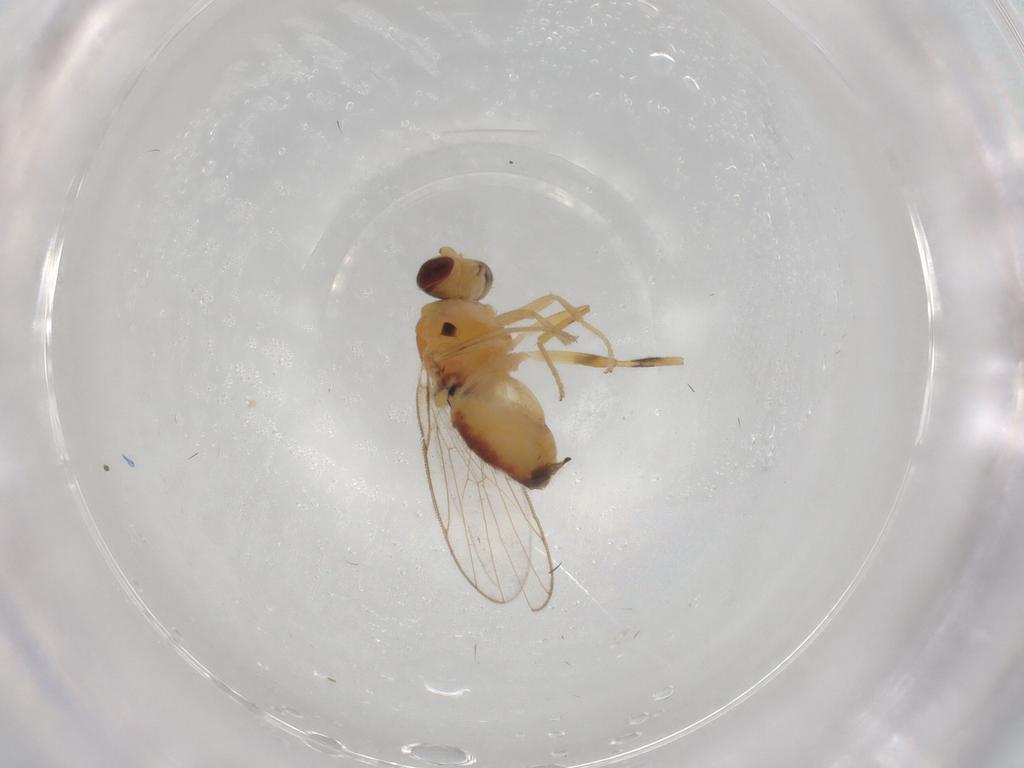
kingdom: Animalia
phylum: Arthropoda
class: Insecta
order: Diptera
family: Chloropidae
